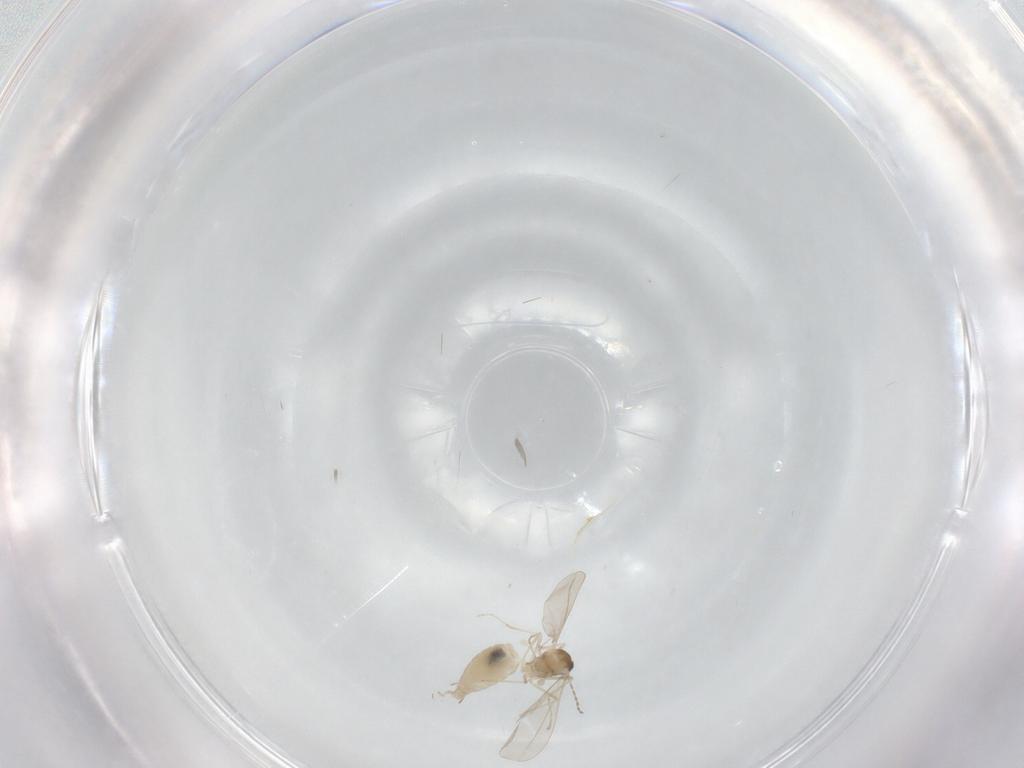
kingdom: Animalia
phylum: Arthropoda
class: Insecta
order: Diptera
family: Cecidomyiidae
